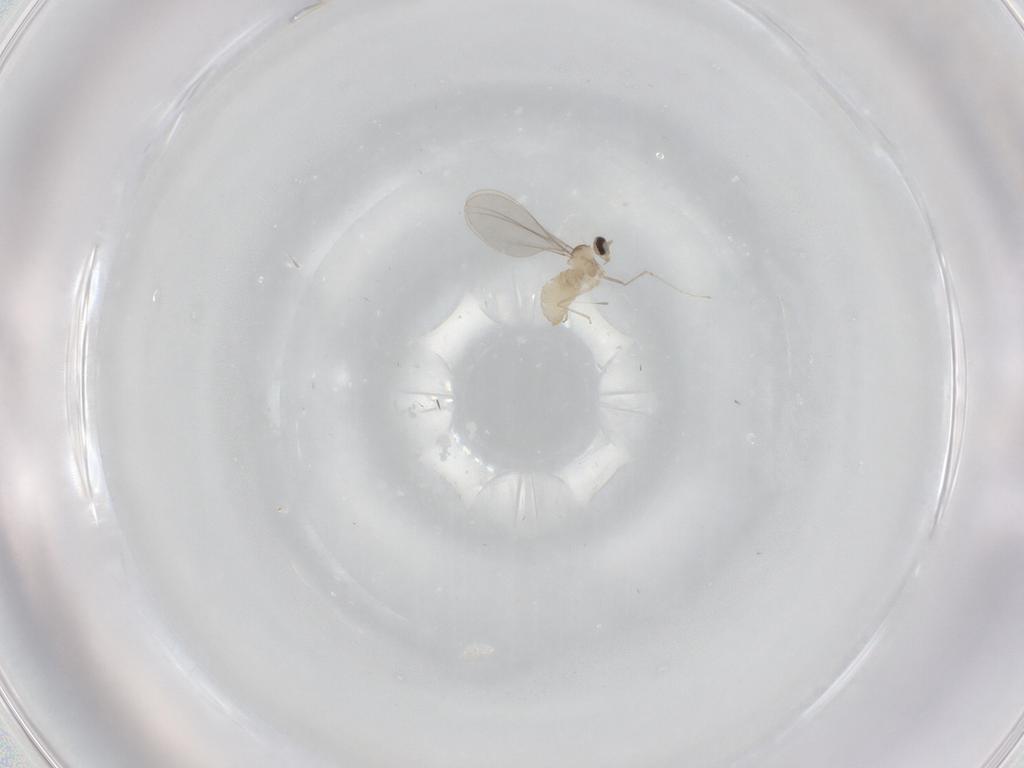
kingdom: Animalia
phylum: Arthropoda
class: Insecta
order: Diptera
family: Cecidomyiidae
